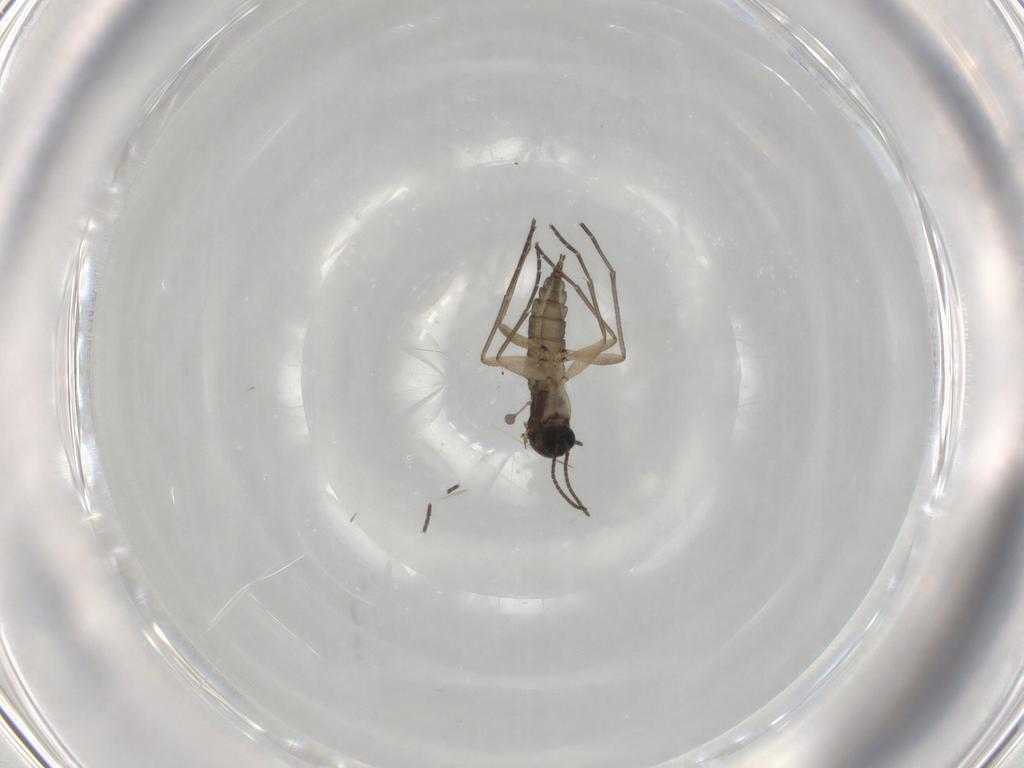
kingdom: Animalia
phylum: Arthropoda
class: Insecta
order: Diptera
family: Sciaridae
